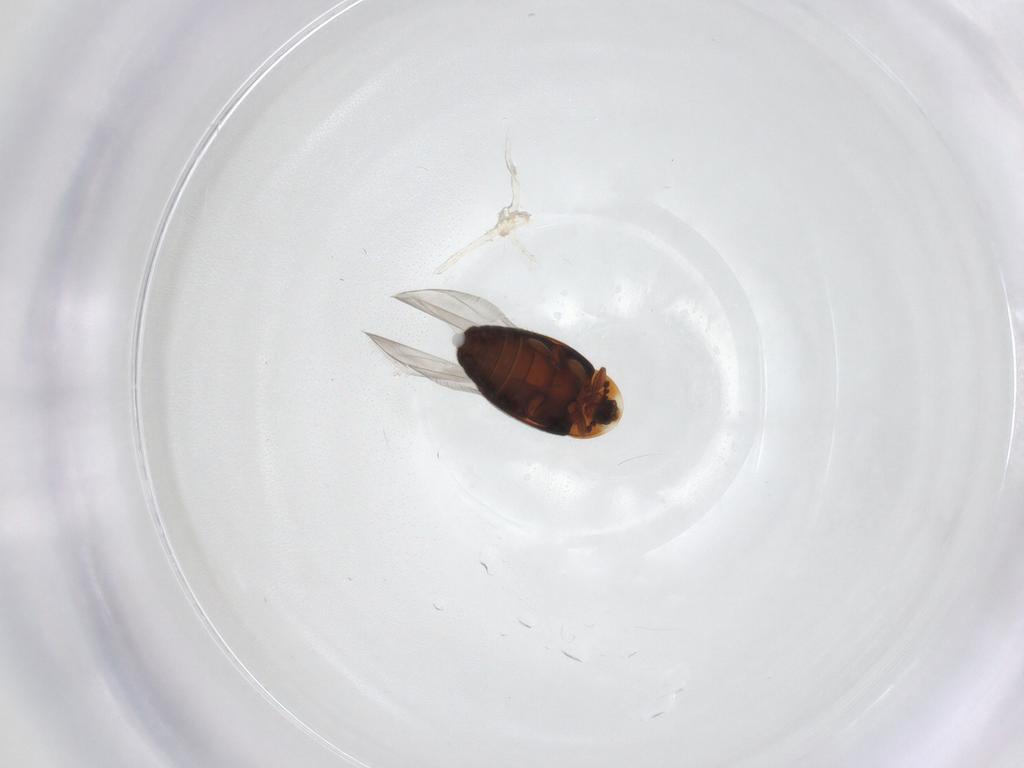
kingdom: Animalia
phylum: Arthropoda
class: Insecta
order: Coleoptera
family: Corylophidae
